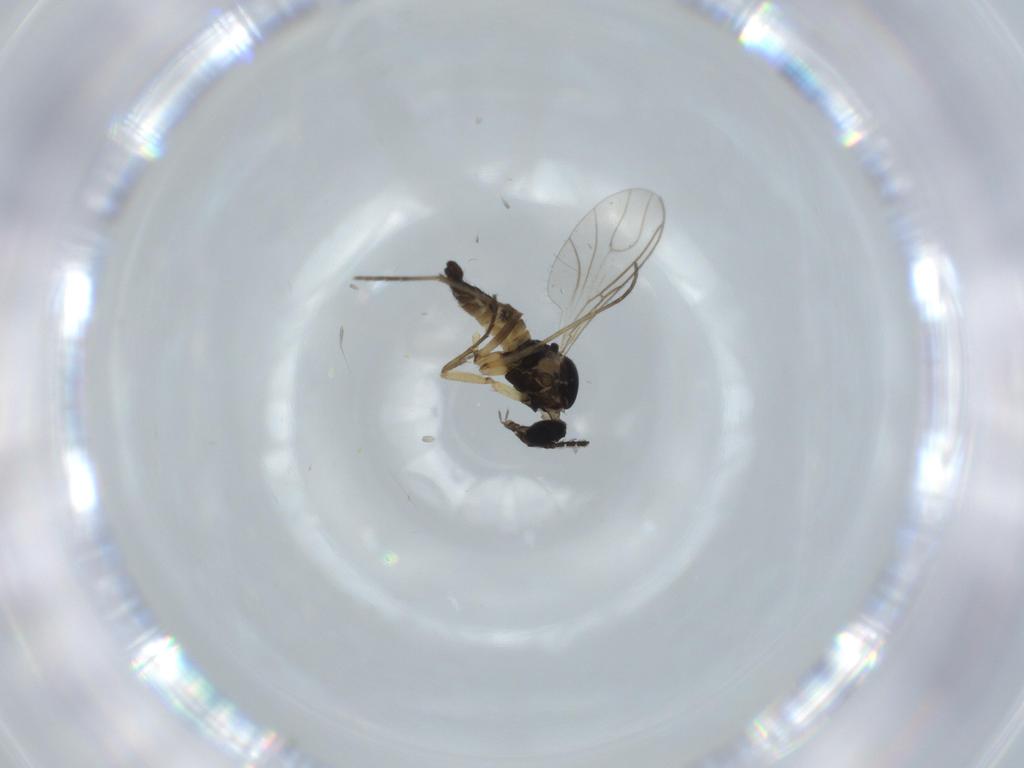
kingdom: Animalia
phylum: Arthropoda
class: Insecta
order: Diptera
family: Sciaridae
